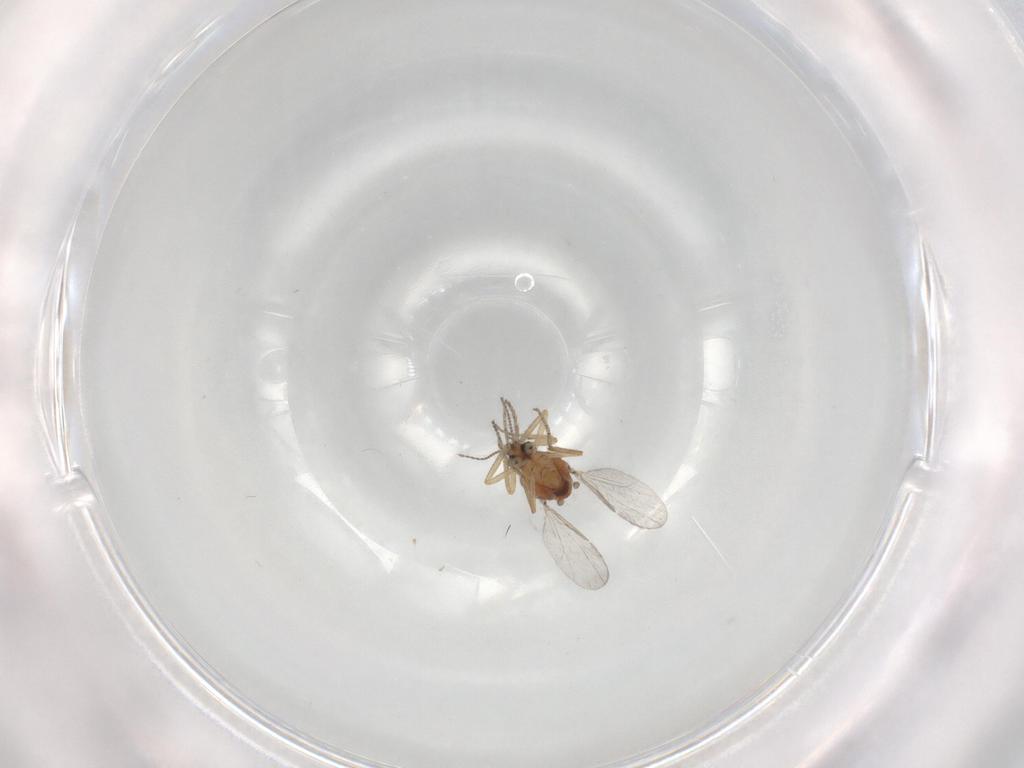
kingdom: Animalia
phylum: Arthropoda
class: Insecta
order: Diptera
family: Ceratopogonidae
